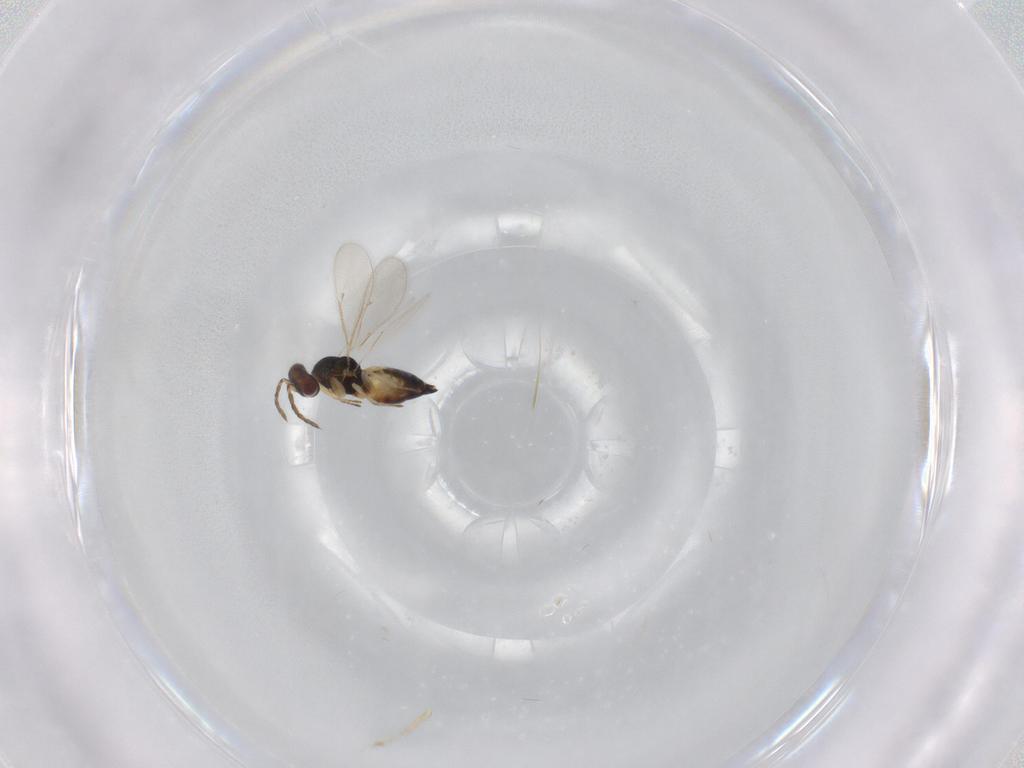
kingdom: Animalia
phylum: Arthropoda
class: Insecta
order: Hymenoptera
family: Eulophidae
